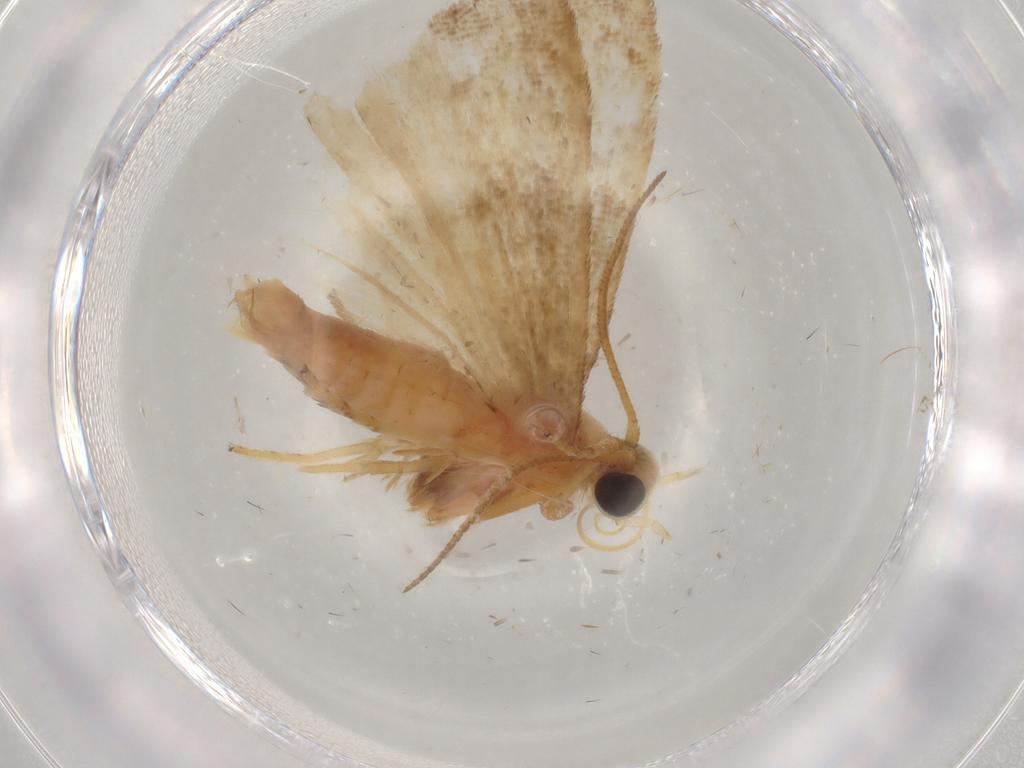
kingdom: Animalia
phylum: Arthropoda
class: Insecta
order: Lepidoptera
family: Pyralidae
